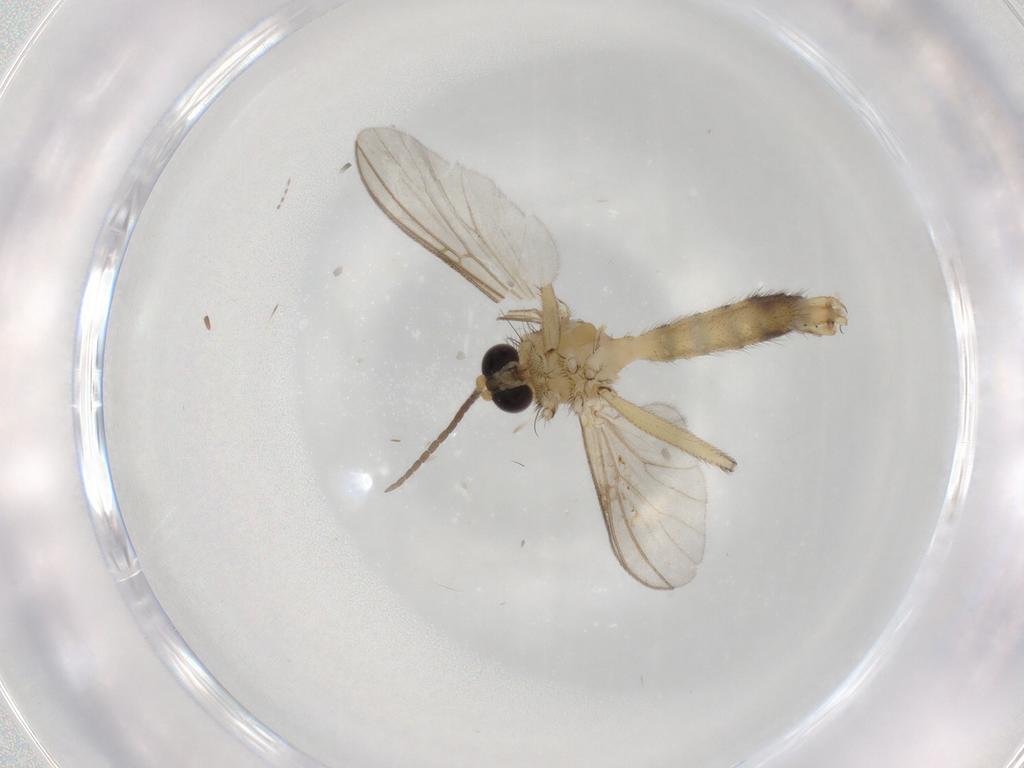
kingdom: Animalia
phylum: Arthropoda
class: Insecta
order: Diptera
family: Mycetophilidae
